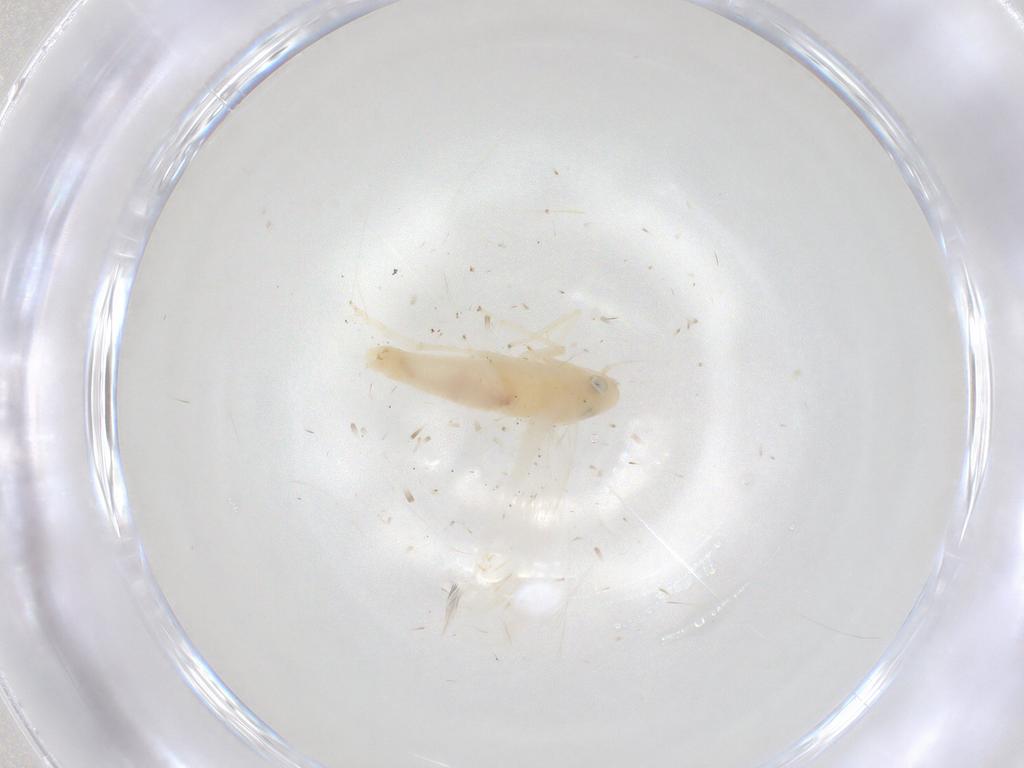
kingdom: Animalia
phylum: Arthropoda
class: Insecta
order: Hemiptera
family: Cicadellidae
